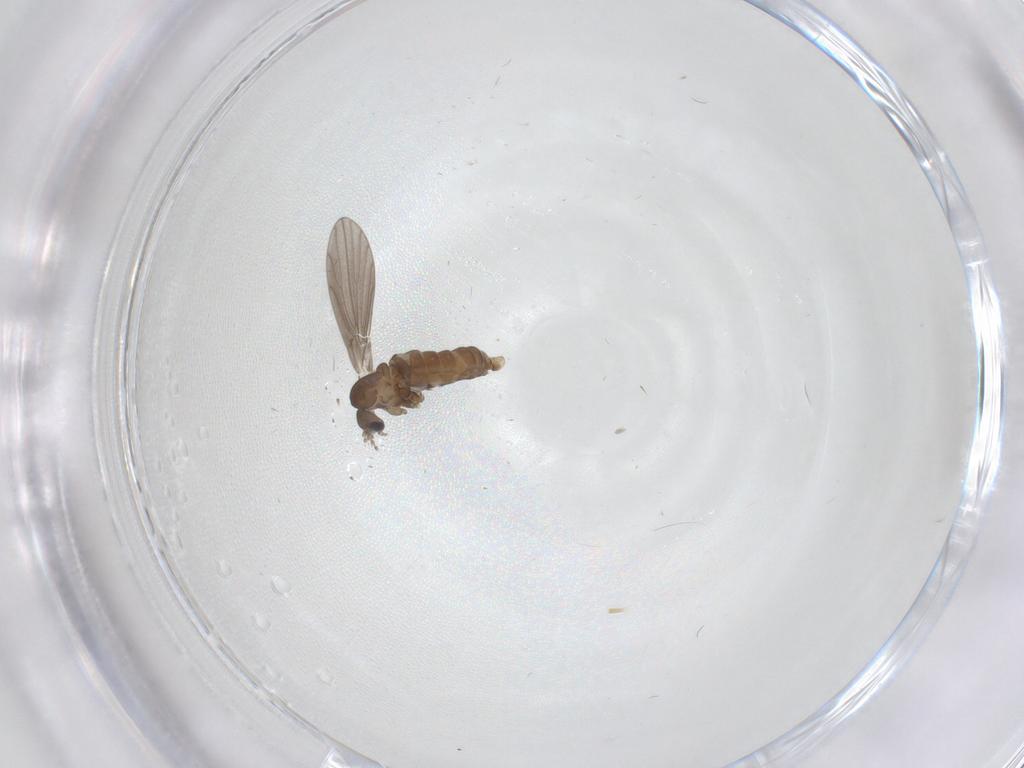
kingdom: Animalia
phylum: Arthropoda
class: Insecta
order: Diptera
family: Psychodidae
